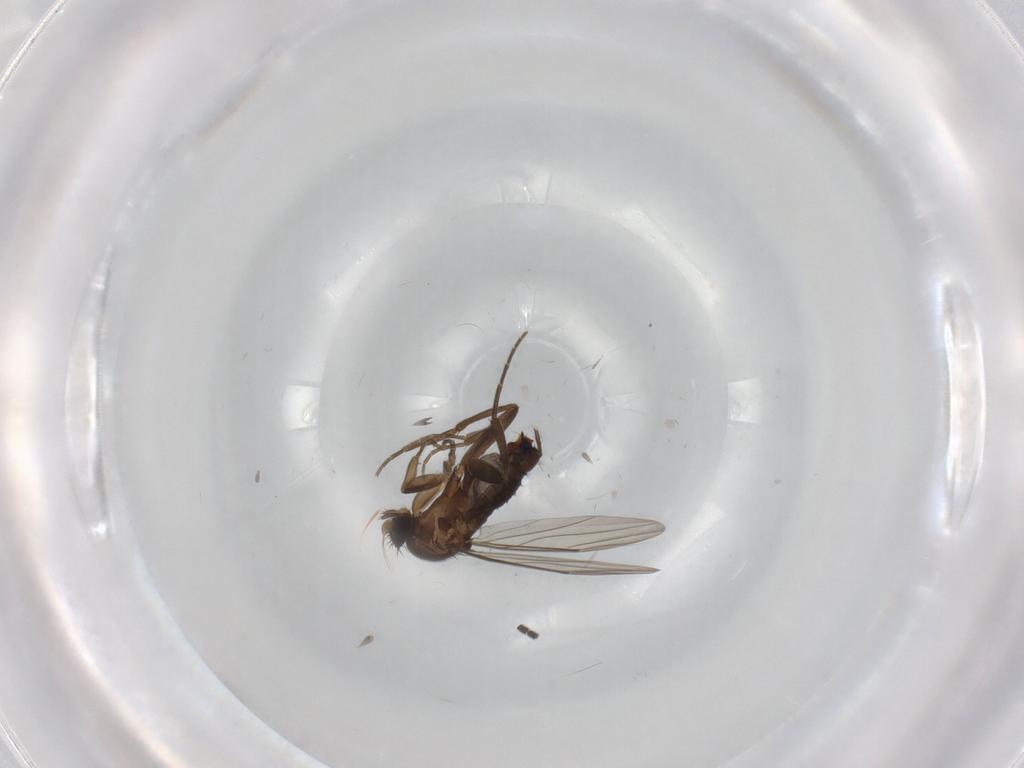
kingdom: Animalia
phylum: Arthropoda
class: Insecta
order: Diptera
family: Phoridae
